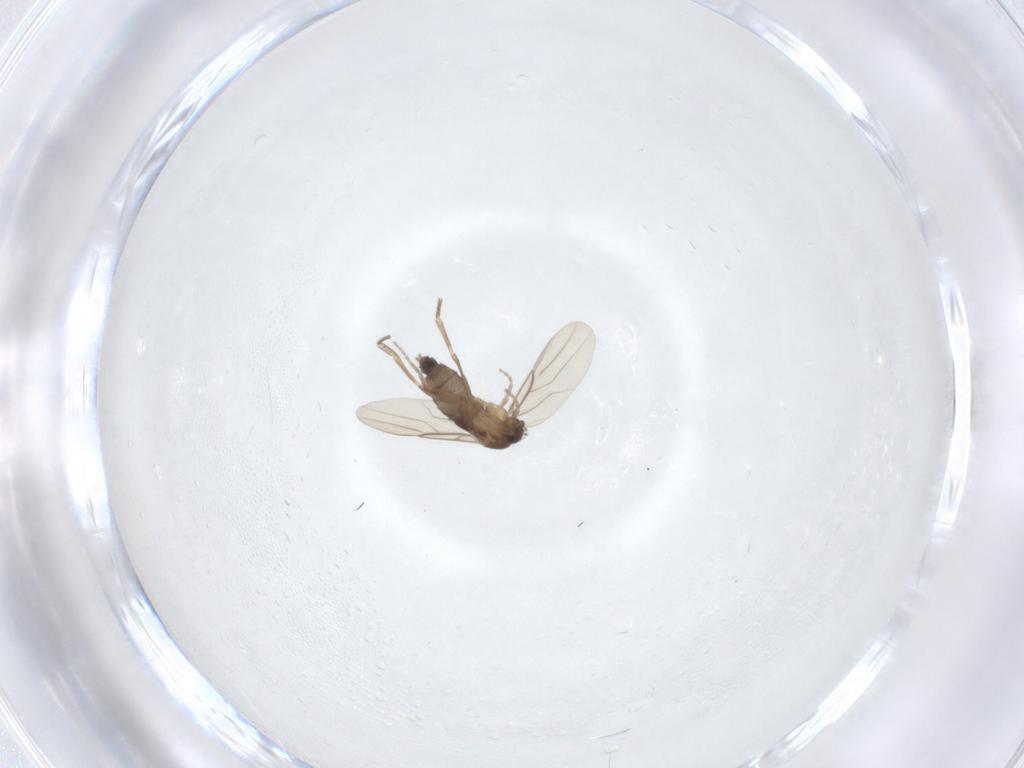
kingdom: Animalia
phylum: Arthropoda
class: Insecta
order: Diptera
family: Phoridae
